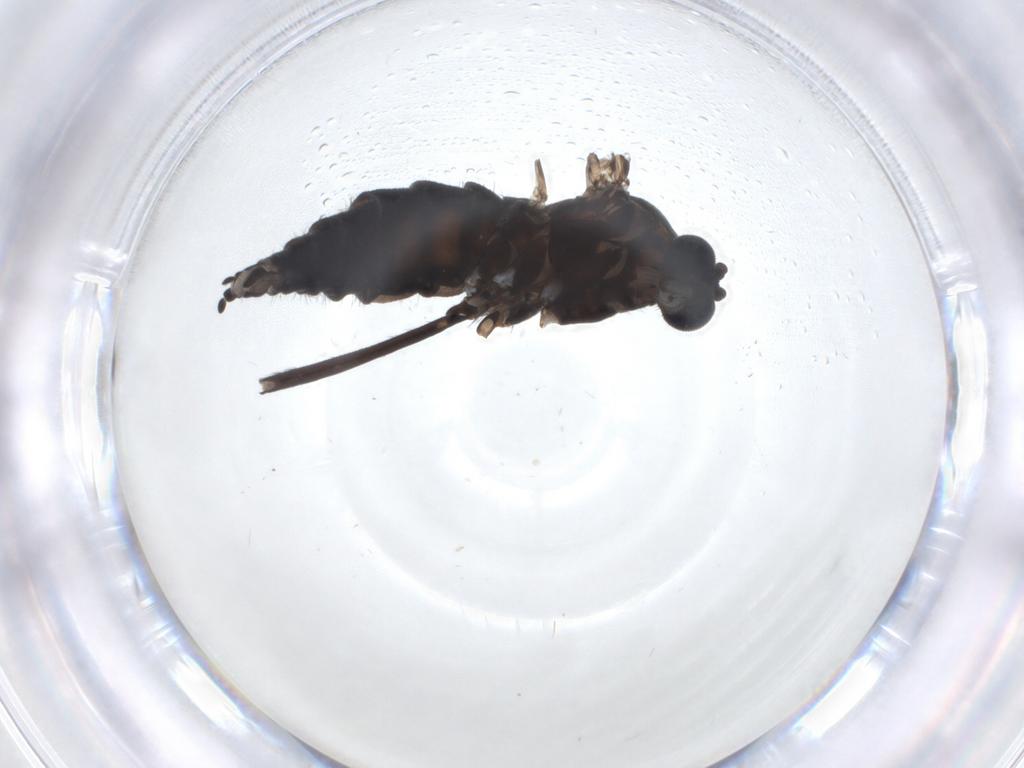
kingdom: Animalia
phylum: Arthropoda
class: Insecta
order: Diptera
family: Sciaridae
